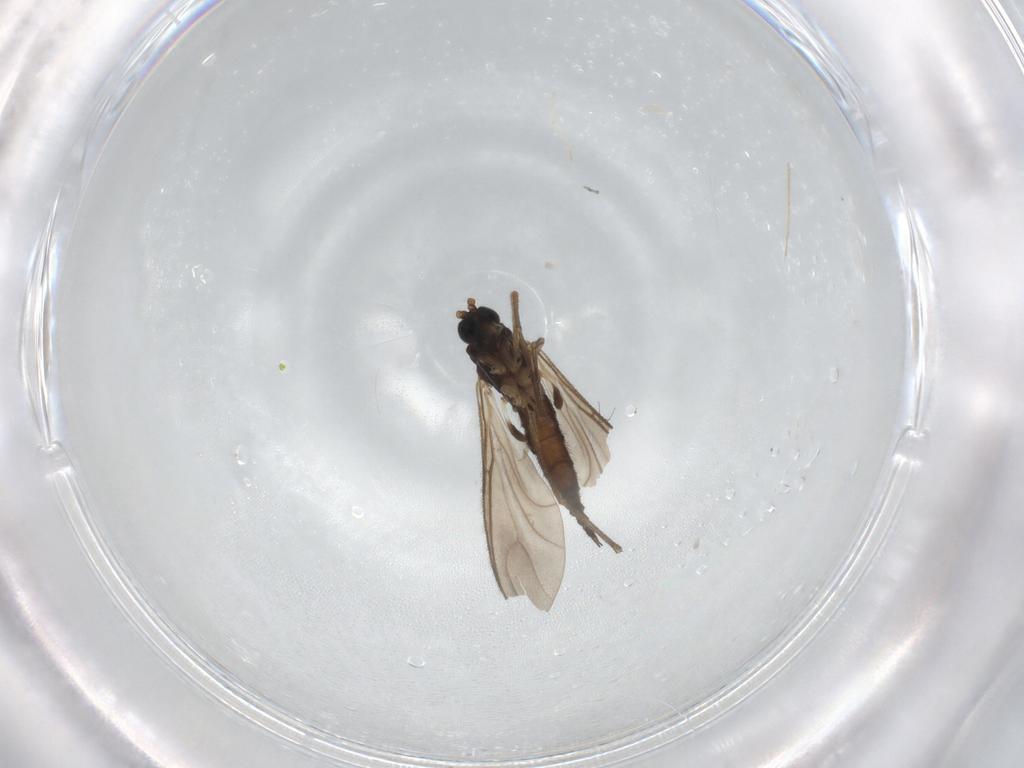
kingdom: Animalia
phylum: Arthropoda
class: Insecta
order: Diptera
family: Sciaridae
